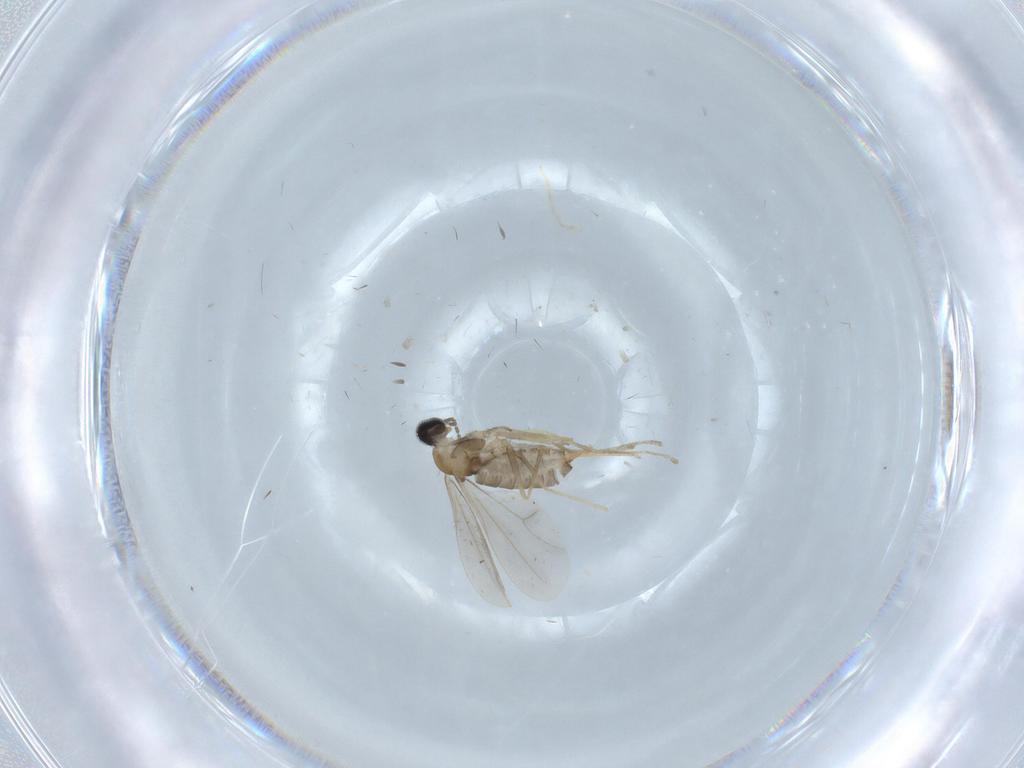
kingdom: Animalia
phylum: Arthropoda
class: Insecta
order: Diptera
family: Cecidomyiidae
